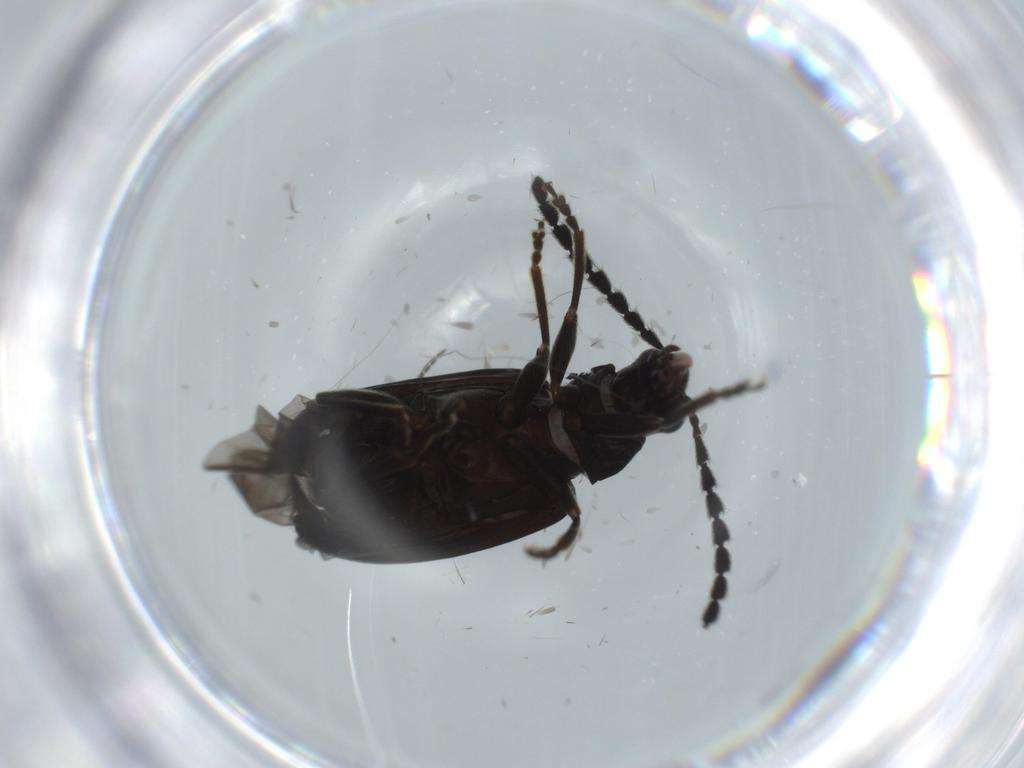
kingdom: Animalia
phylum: Arthropoda
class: Insecta
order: Coleoptera
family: Chrysomelidae
